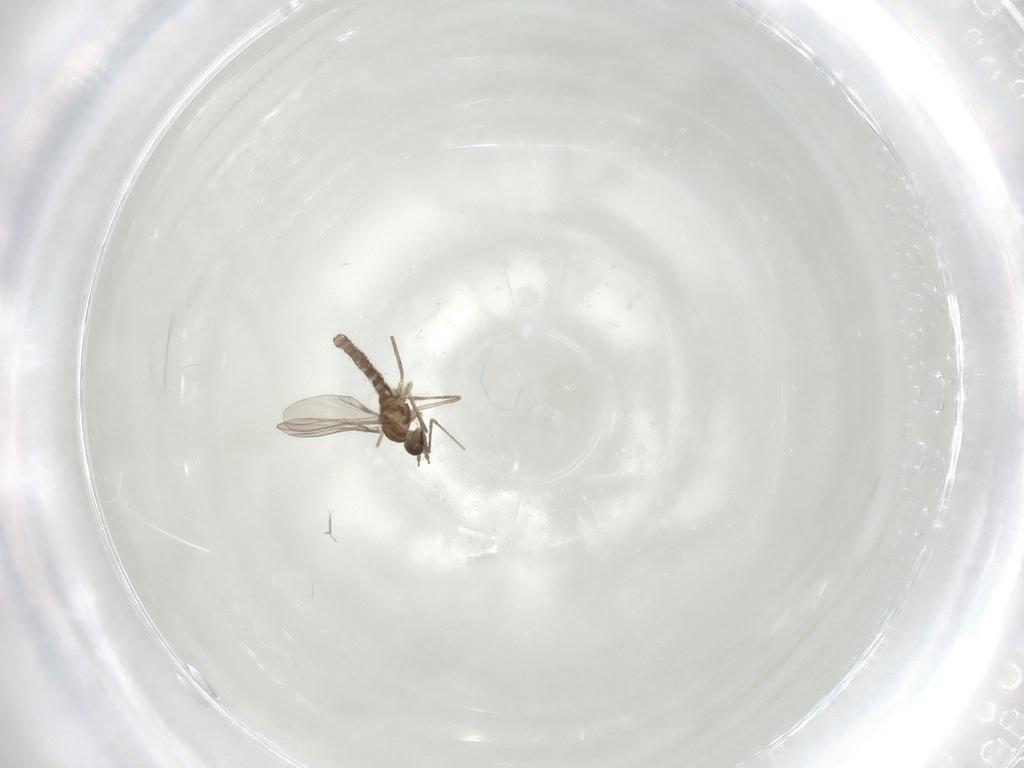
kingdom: Animalia
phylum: Arthropoda
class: Insecta
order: Diptera
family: Cecidomyiidae
